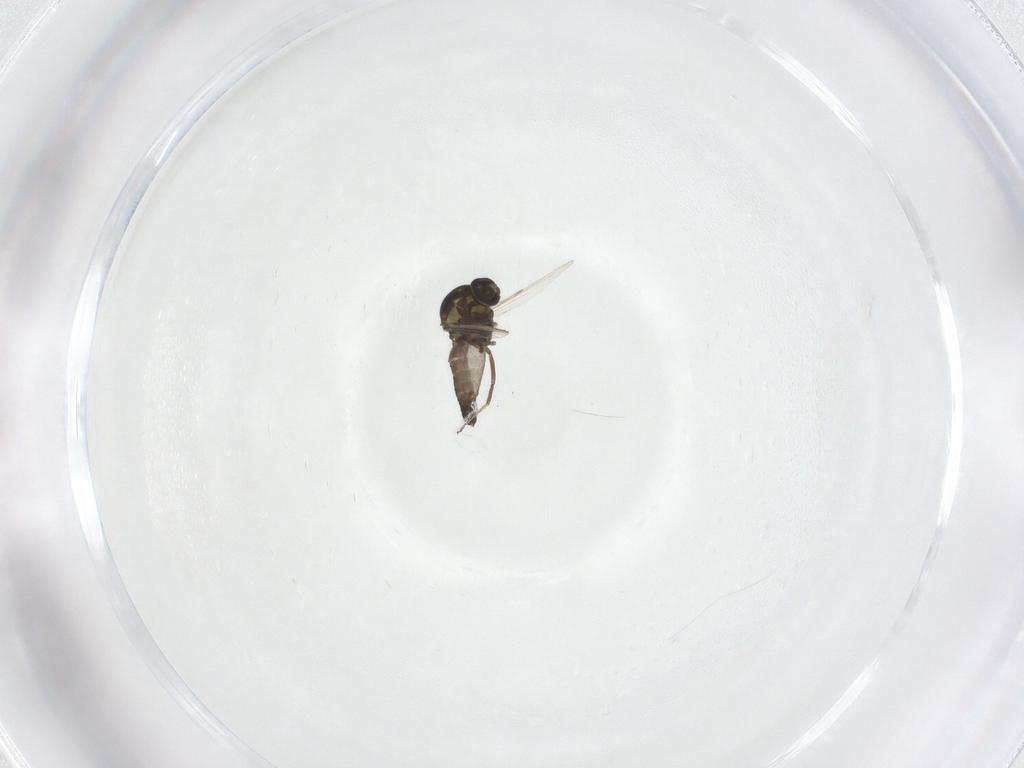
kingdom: Animalia
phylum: Arthropoda
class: Insecta
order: Diptera
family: Ceratopogonidae
